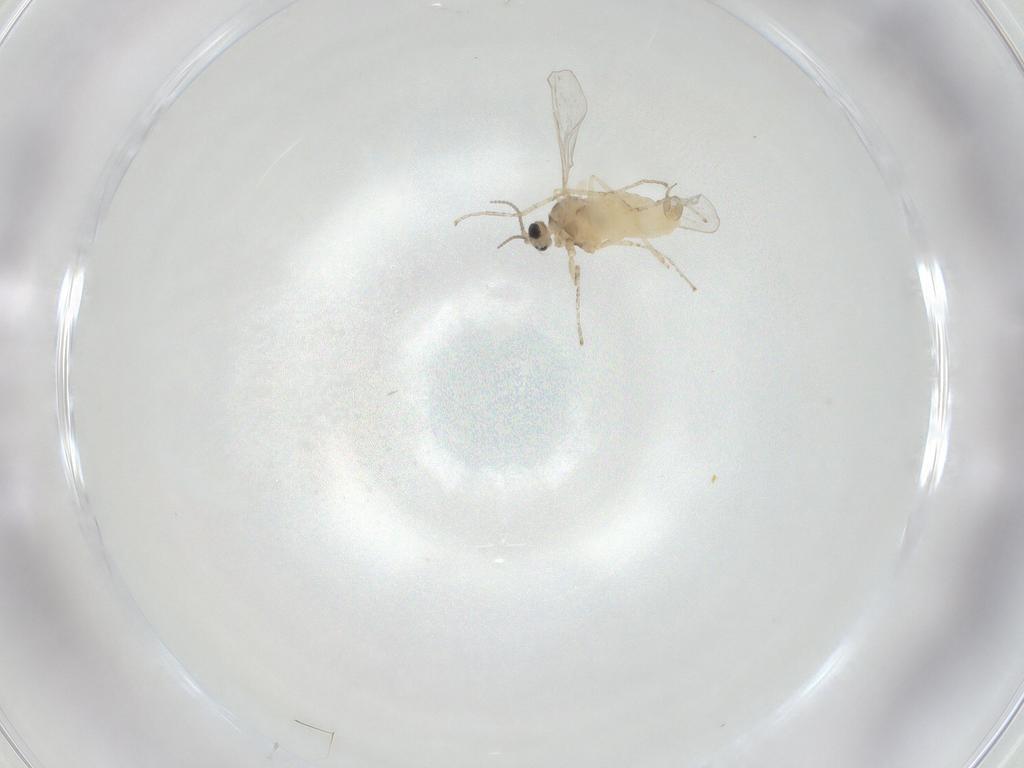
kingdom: Animalia
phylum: Arthropoda
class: Insecta
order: Diptera
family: Cecidomyiidae
